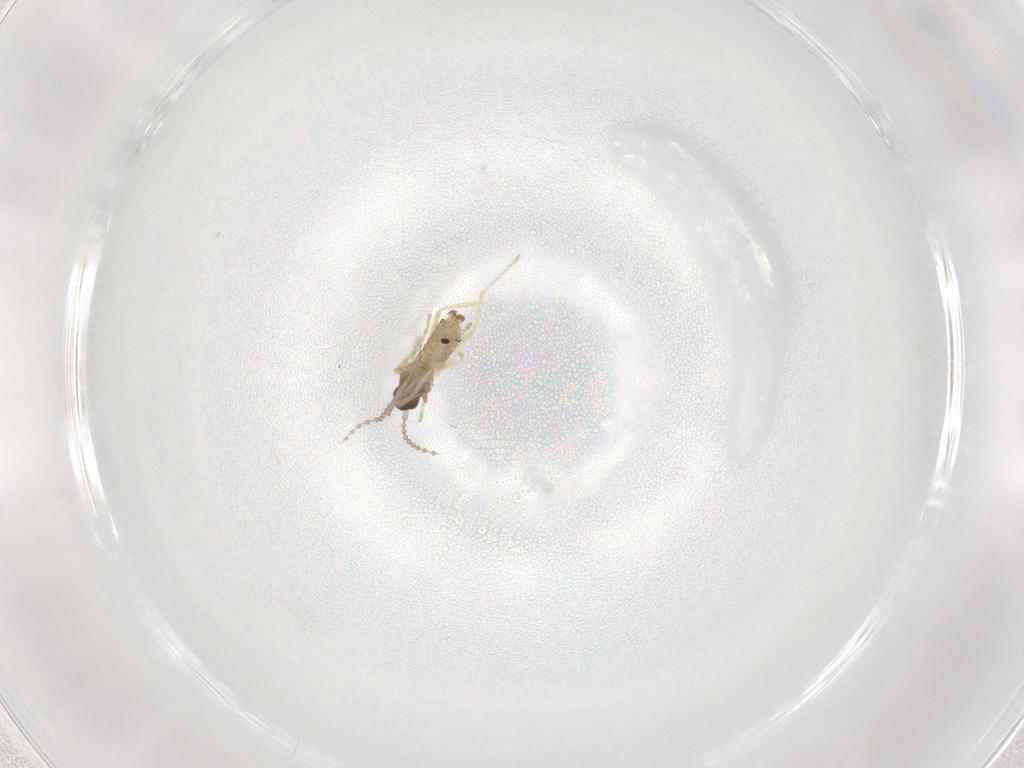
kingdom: Animalia
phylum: Arthropoda
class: Insecta
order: Diptera
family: Cecidomyiidae
